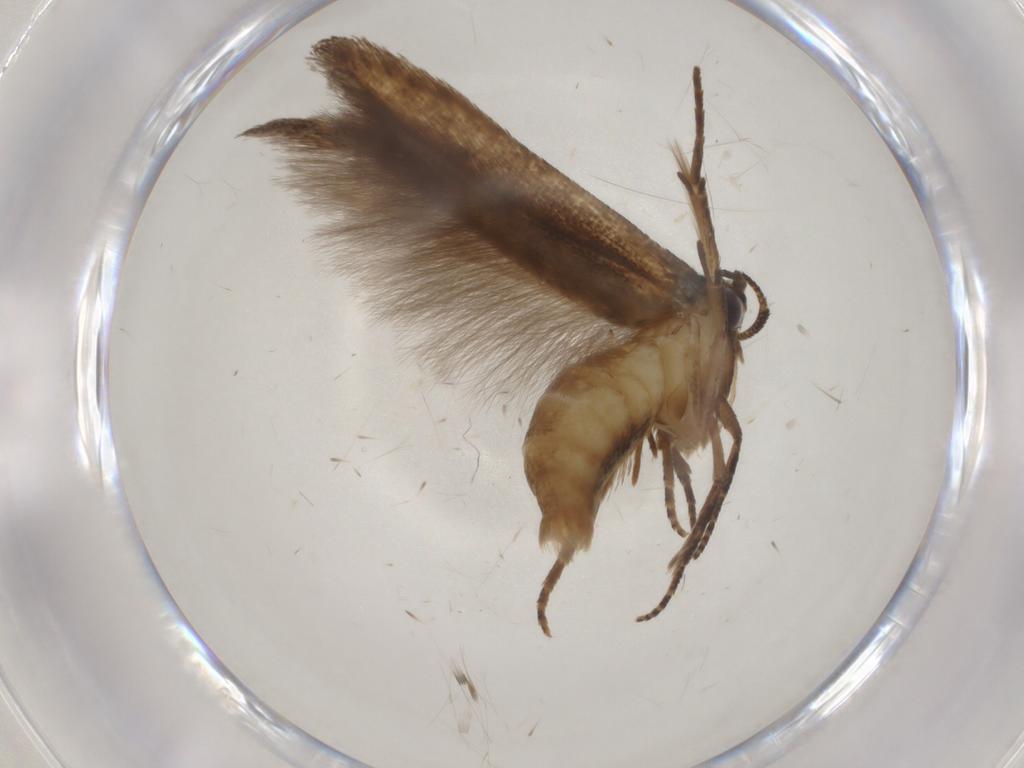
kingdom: Animalia
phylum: Arthropoda
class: Insecta
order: Lepidoptera
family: Cosmopterigidae
